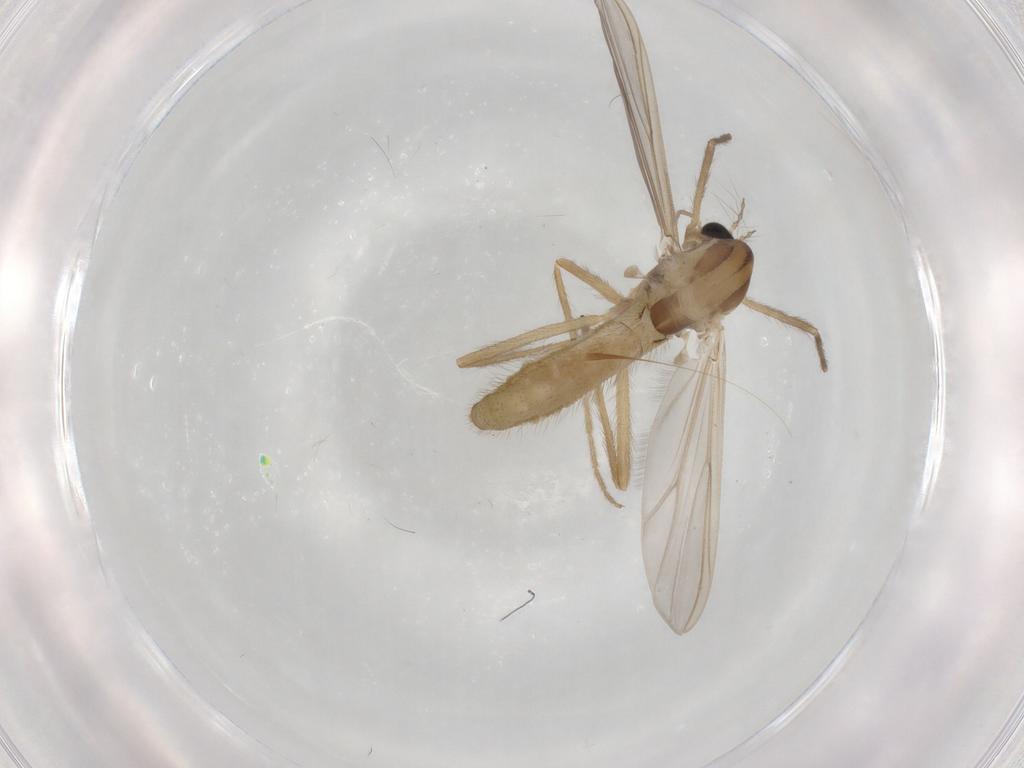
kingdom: Animalia
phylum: Arthropoda
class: Insecta
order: Diptera
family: Chironomidae
